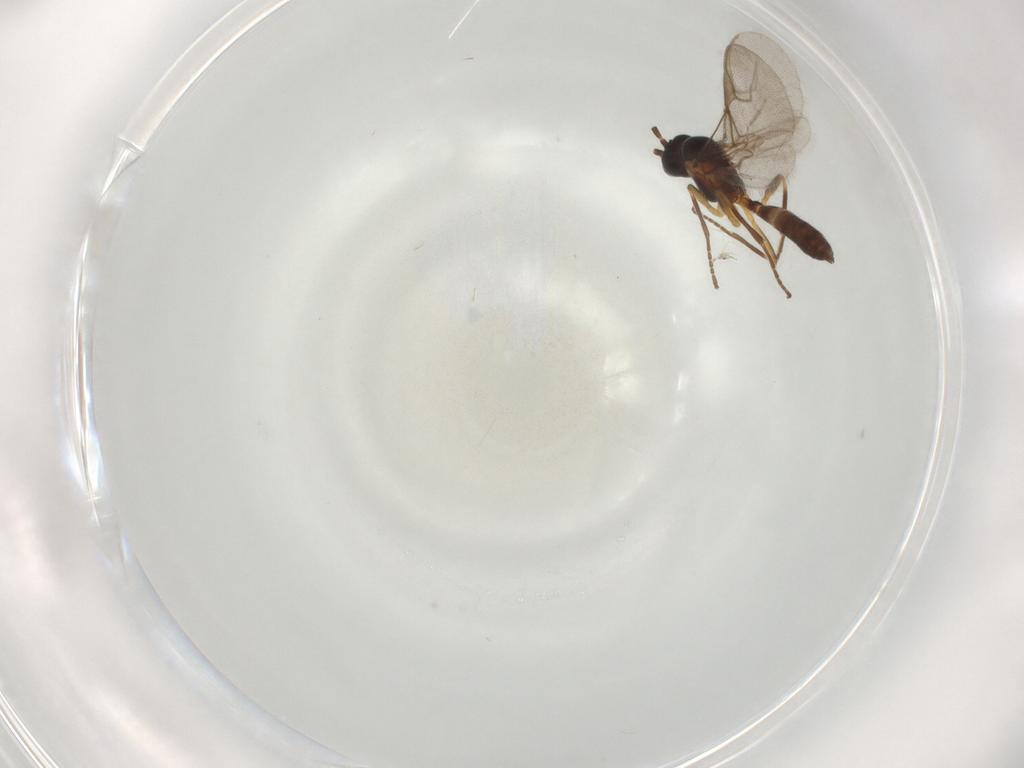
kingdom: Animalia
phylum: Arthropoda
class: Insecta
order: Hymenoptera
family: Braconidae
